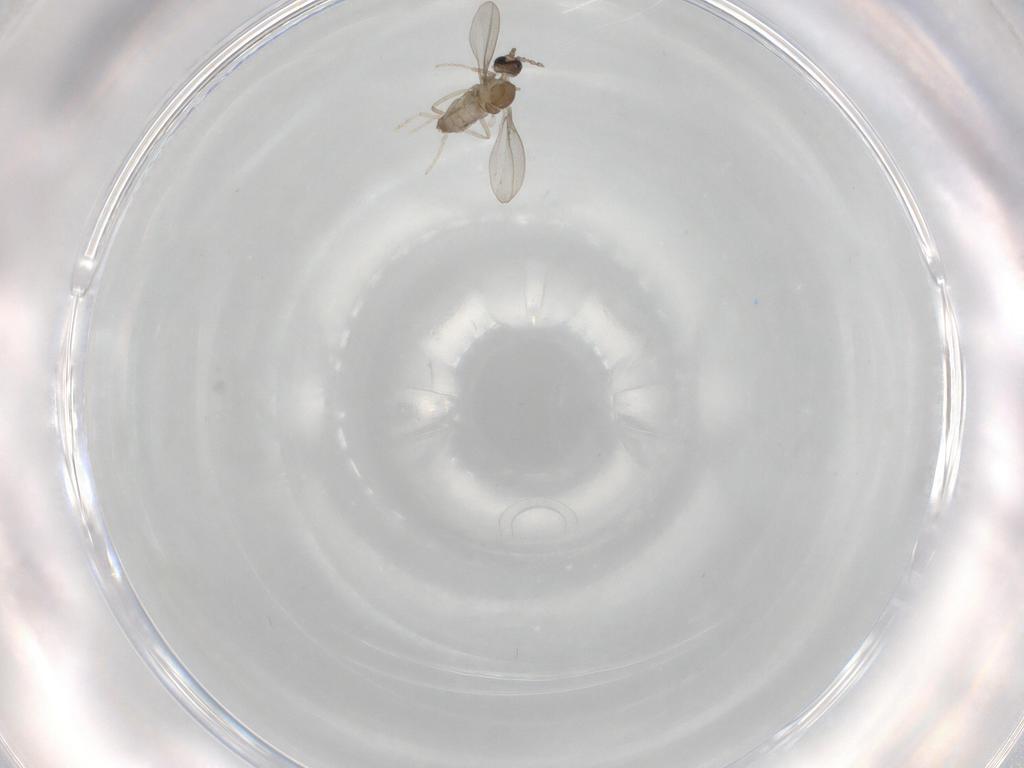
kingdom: Animalia
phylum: Arthropoda
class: Insecta
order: Diptera
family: Cecidomyiidae
